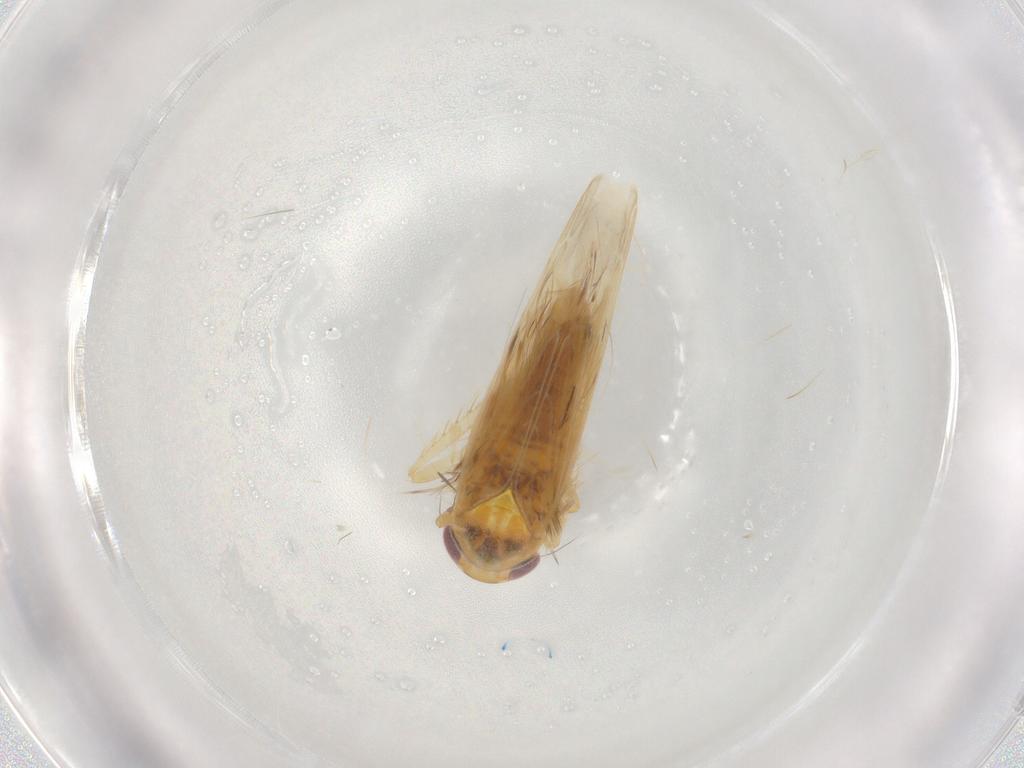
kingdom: Animalia
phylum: Arthropoda
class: Insecta
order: Hemiptera
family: Cicadellidae
